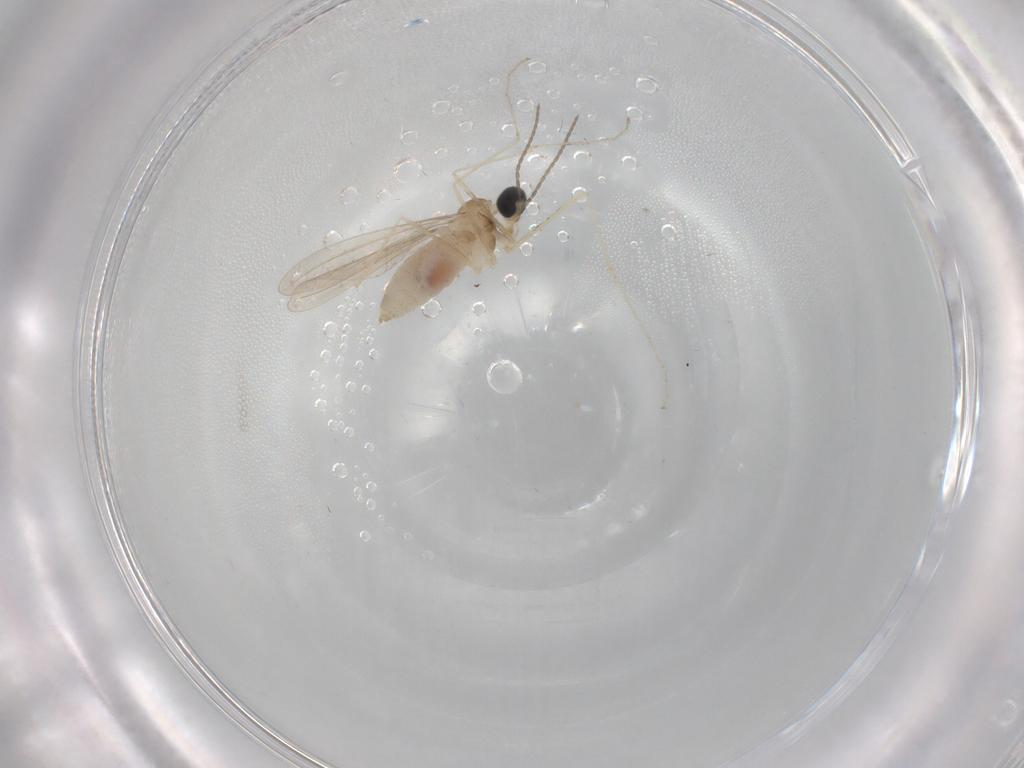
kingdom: Animalia
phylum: Arthropoda
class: Insecta
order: Diptera
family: Cecidomyiidae
